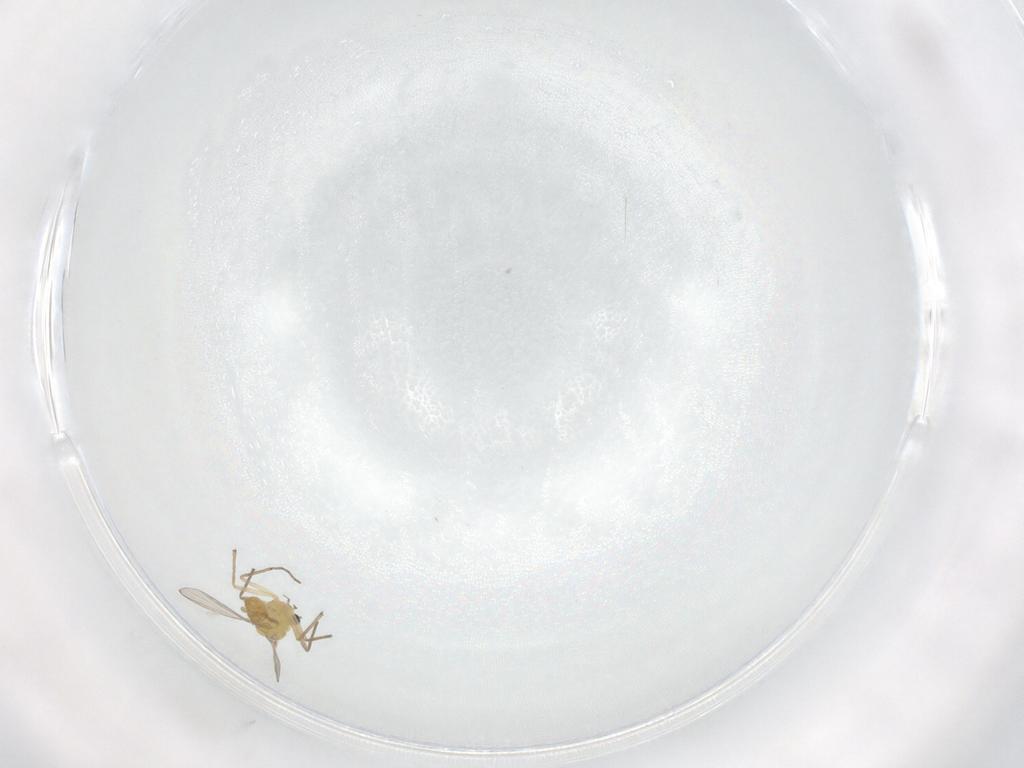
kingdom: Animalia
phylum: Arthropoda
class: Insecta
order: Diptera
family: Chironomidae
